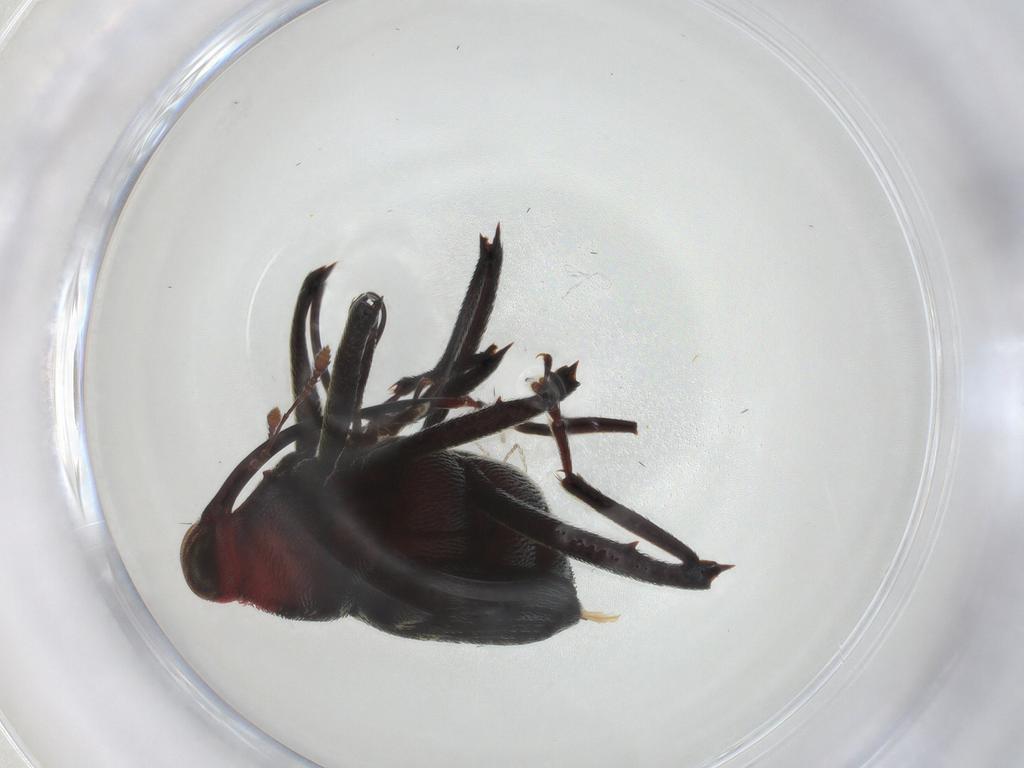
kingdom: Animalia
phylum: Arthropoda
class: Insecta
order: Coleoptera
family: Curculionidae
